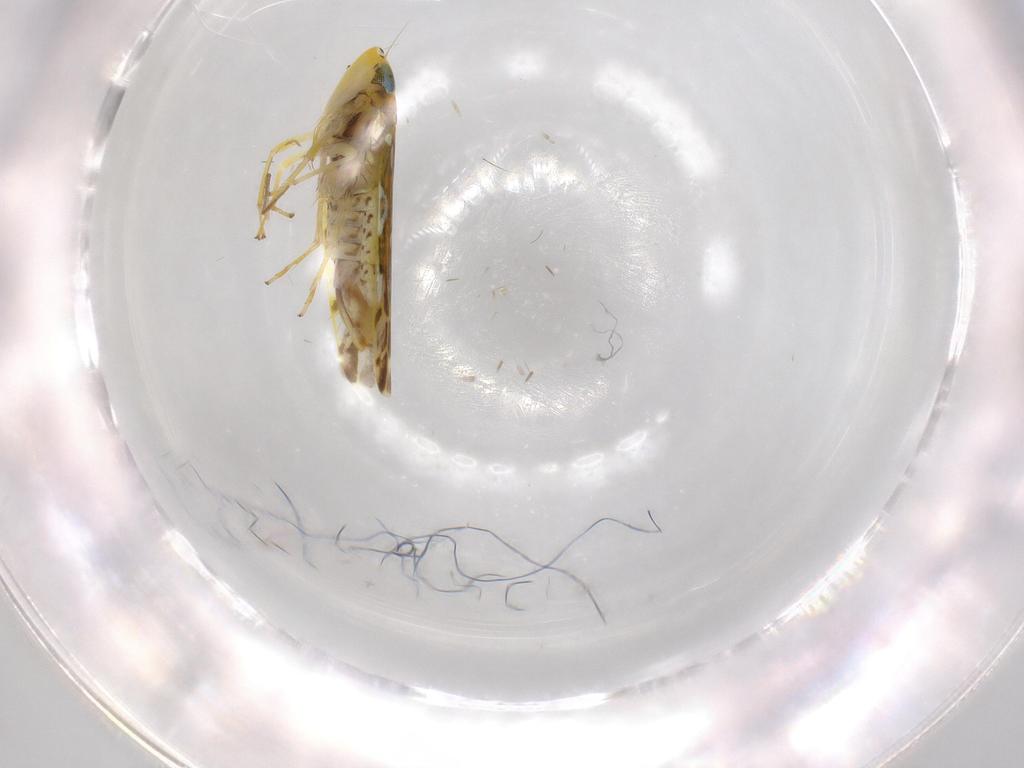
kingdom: Animalia
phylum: Arthropoda
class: Insecta
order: Hemiptera
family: Cicadellidae
